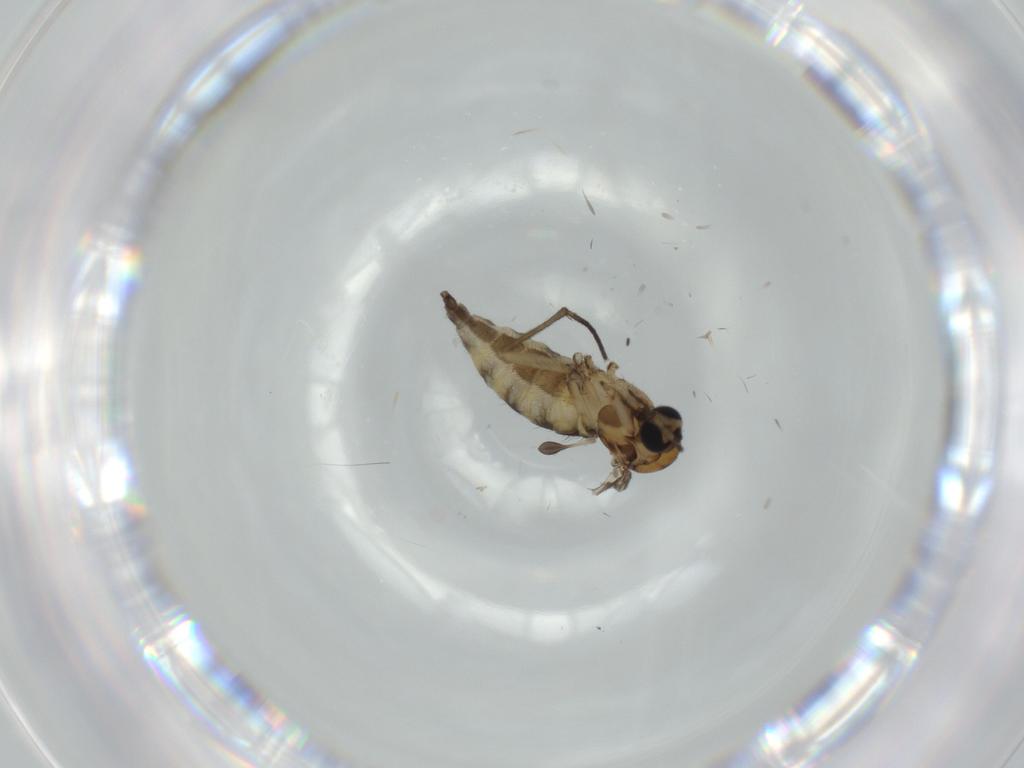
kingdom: Animalia
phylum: Arthropoda
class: Insecta
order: Diptera
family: Sciaridae
